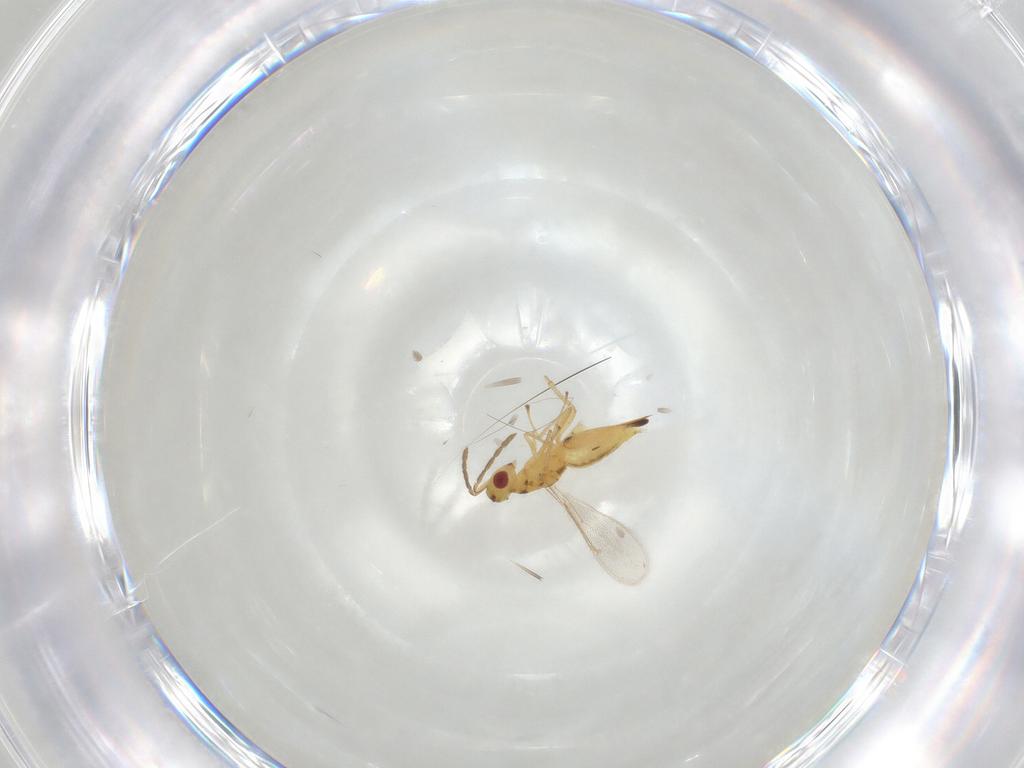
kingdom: Animalia
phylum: Arthropoda
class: Insecta
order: Hymenoptera
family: Eulophidae
